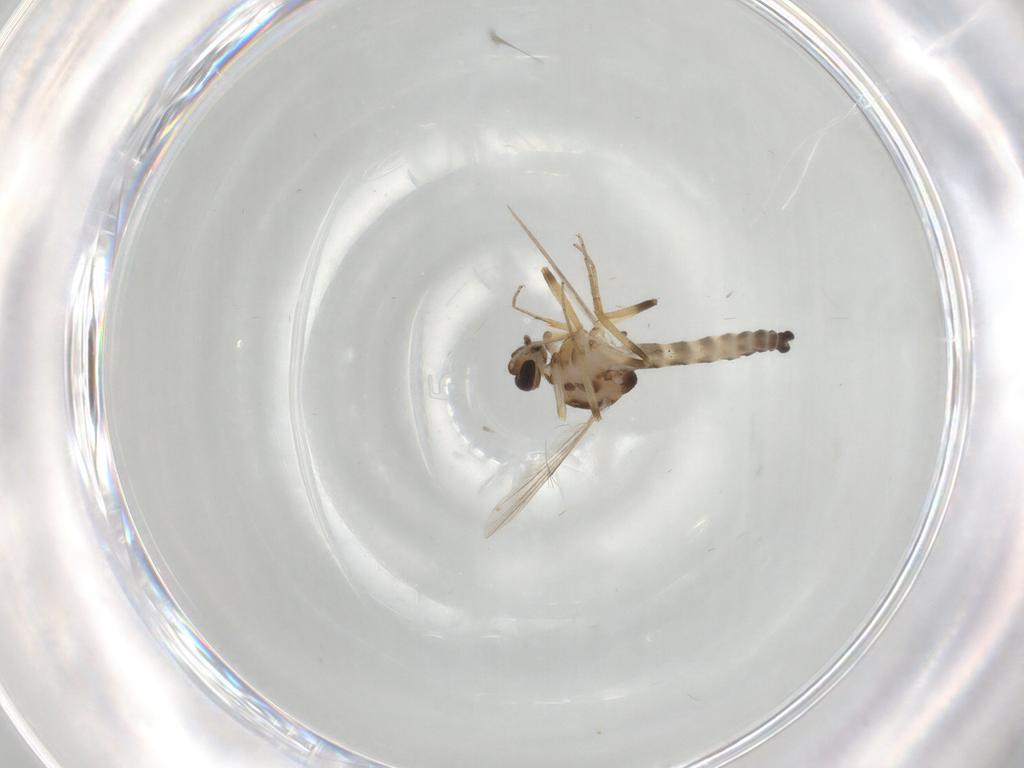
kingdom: Animalia
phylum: Arthropoda
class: Insecta
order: Diptera
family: Ceratopogonidae
